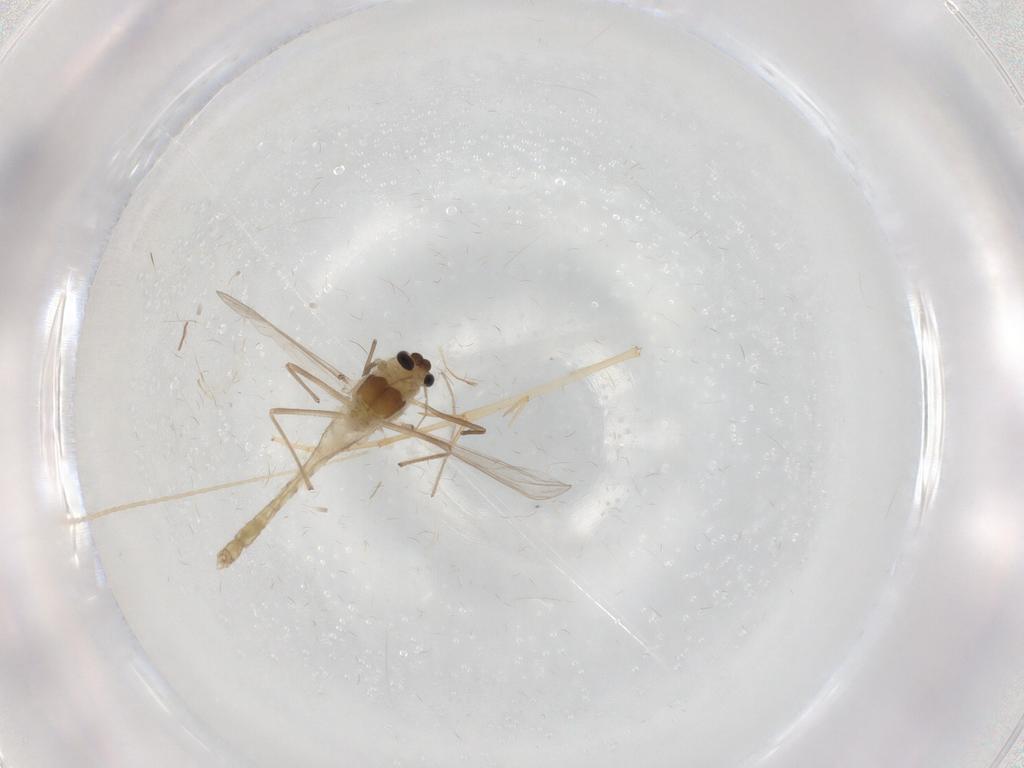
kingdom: Animalia
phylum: Arthropoda
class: Insecta
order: Diptera
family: Chironomidae
